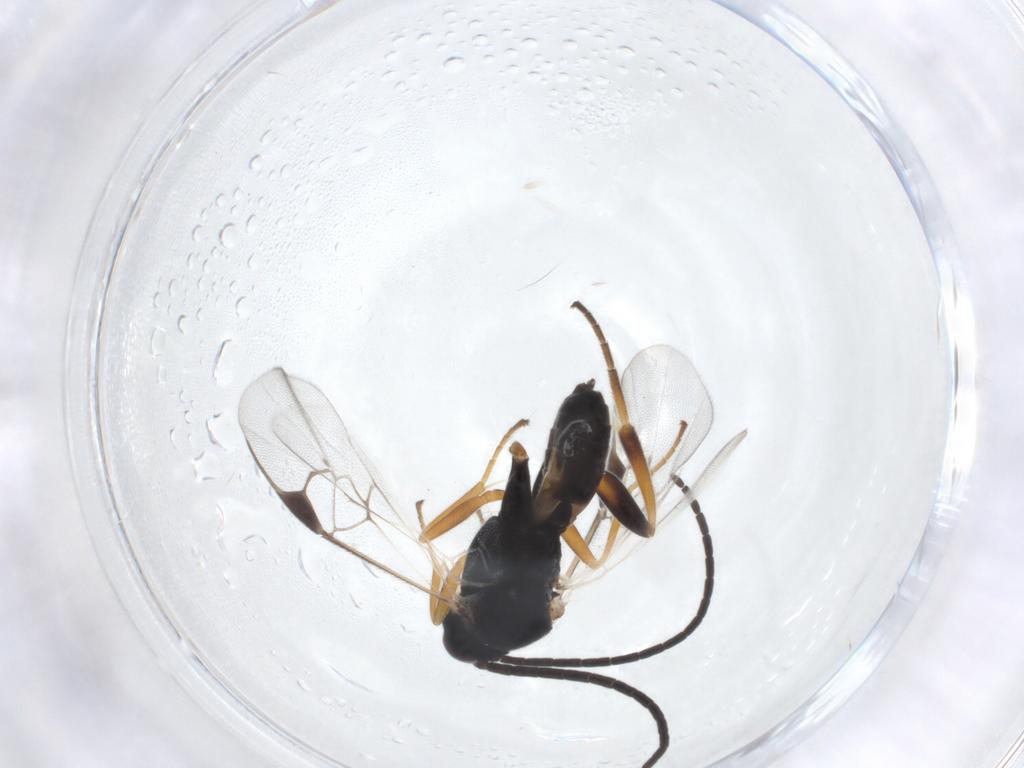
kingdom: Animalia
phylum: Arthropoda
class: Insecta
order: Hymenoptera
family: Braconidae
